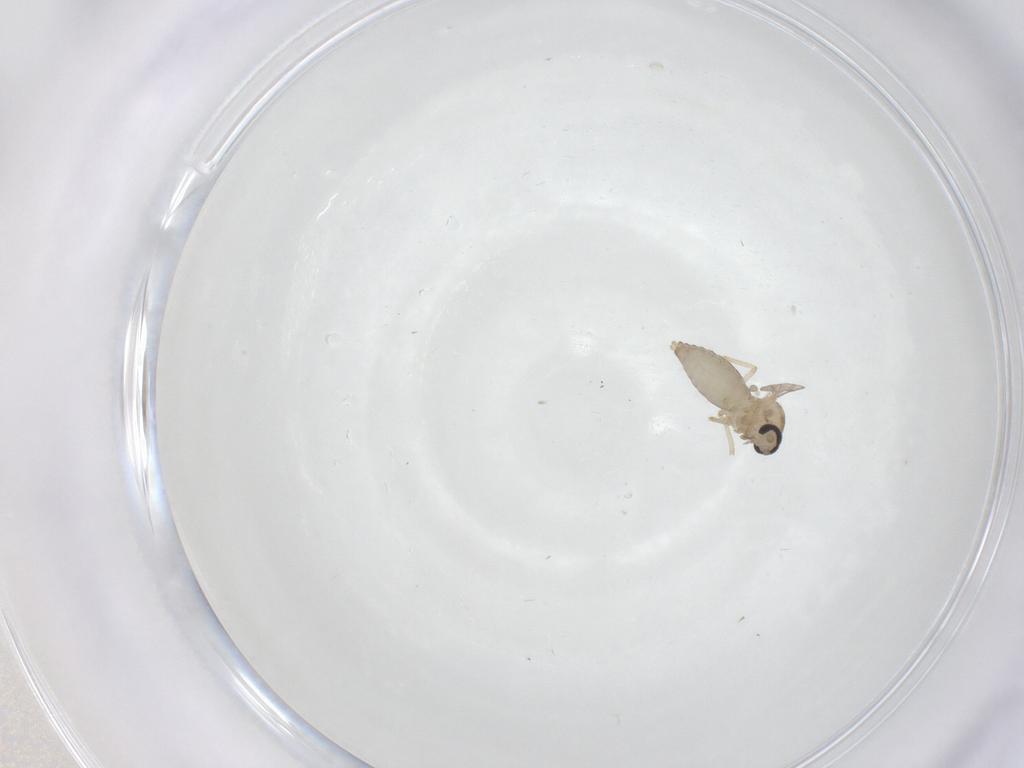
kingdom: Animalia
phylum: Arthropoda
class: Insecta
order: Diptera
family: Ceratopogonidae
